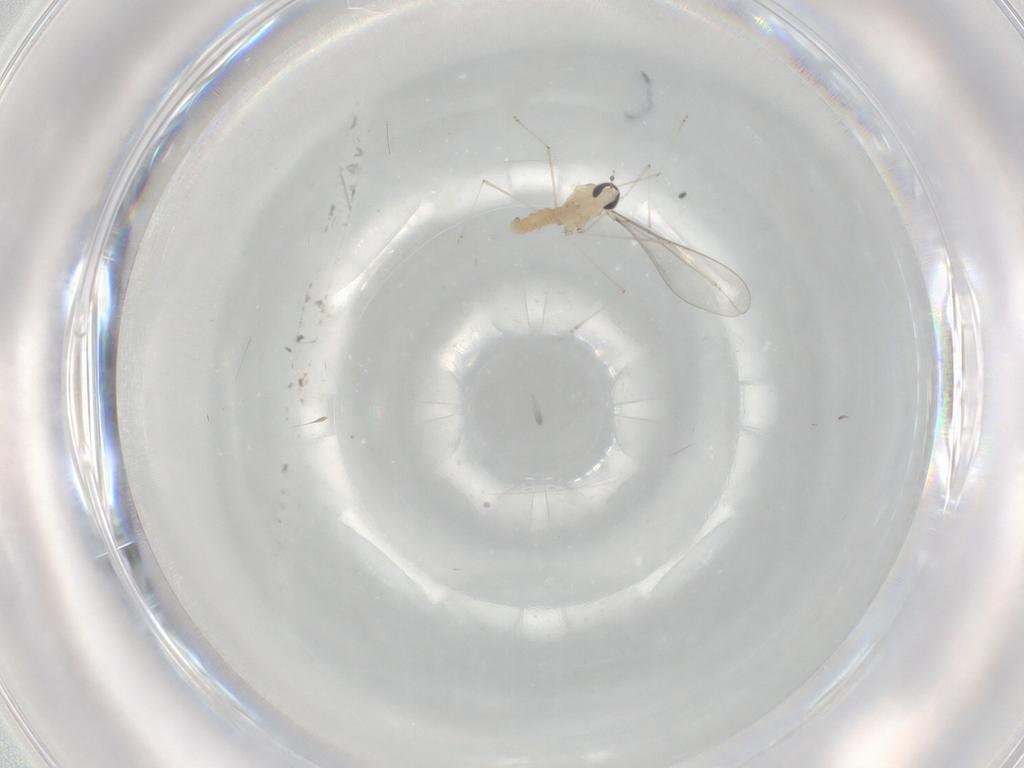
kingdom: Animalia
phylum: Arthropoda
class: Insecta
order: Diptera
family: Cecidomyiidae
